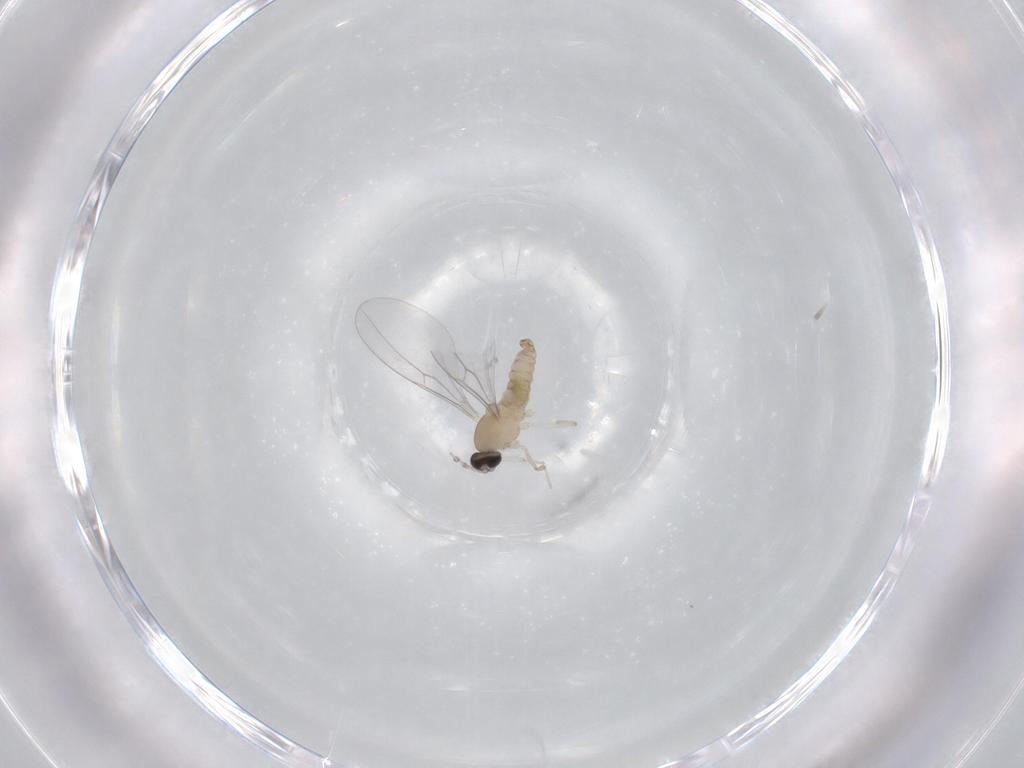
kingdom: Animalia
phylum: Arthropoda
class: Insecta
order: Diptera
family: Cecidomyiidae
